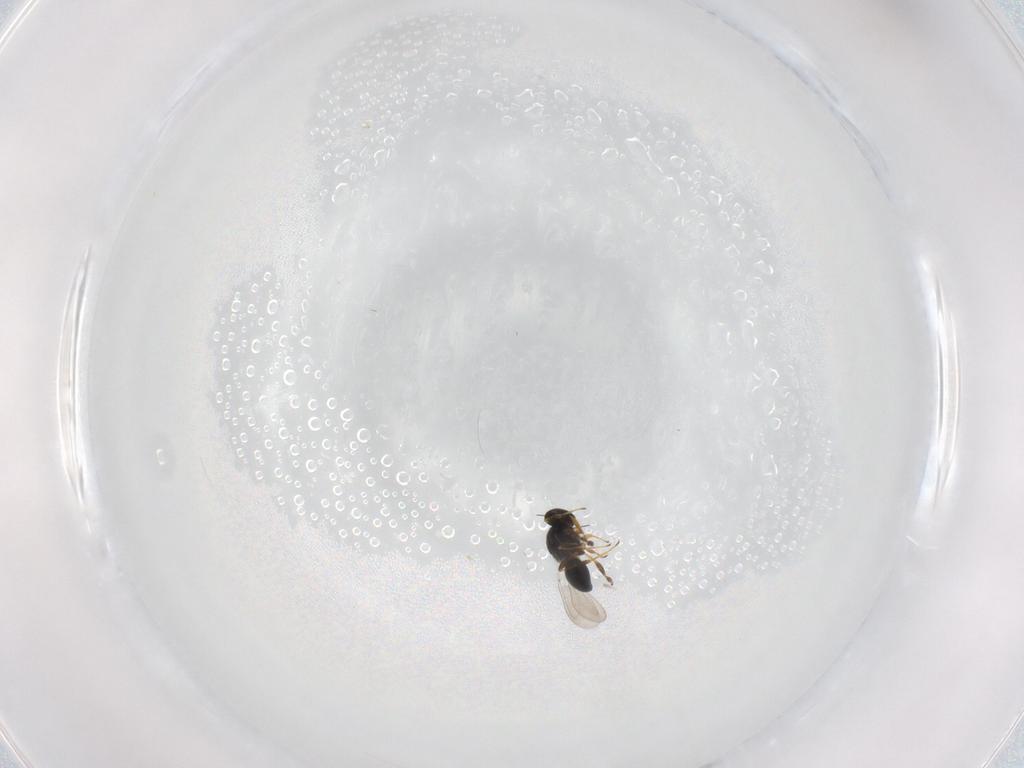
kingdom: Animalia
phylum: Arthropoda
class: Insecta
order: Hymenoptera
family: Platygastridae
